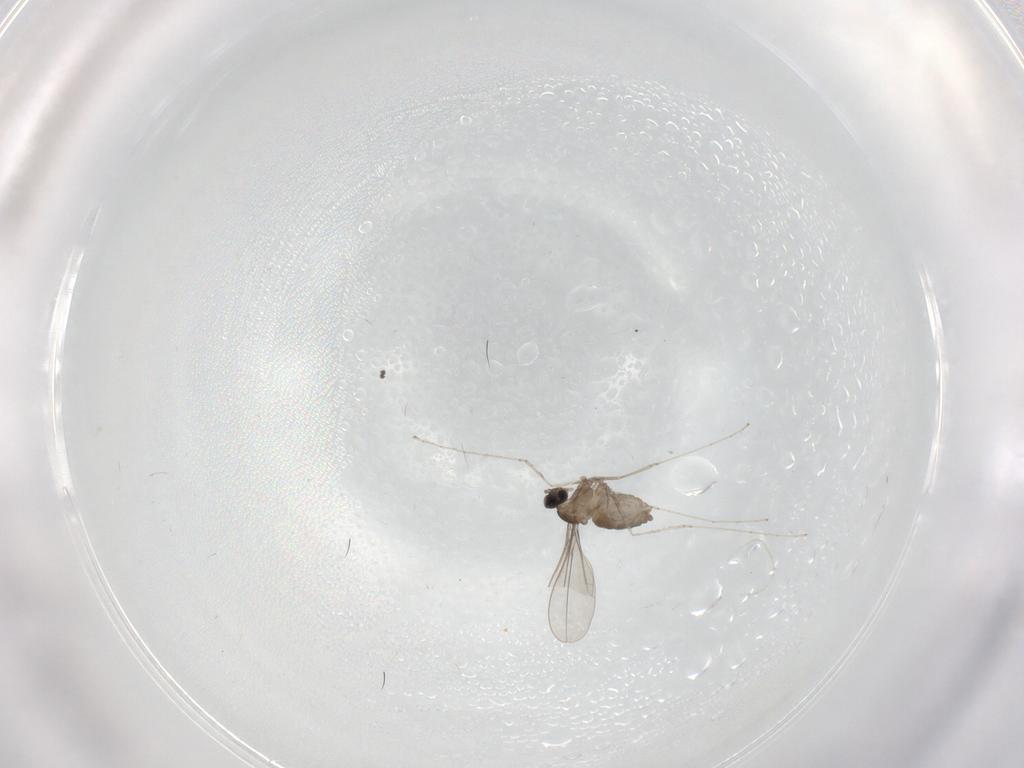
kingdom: Animalia
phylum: Arthropoda
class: Insecta
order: Diptera
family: Cecidomyiidae
